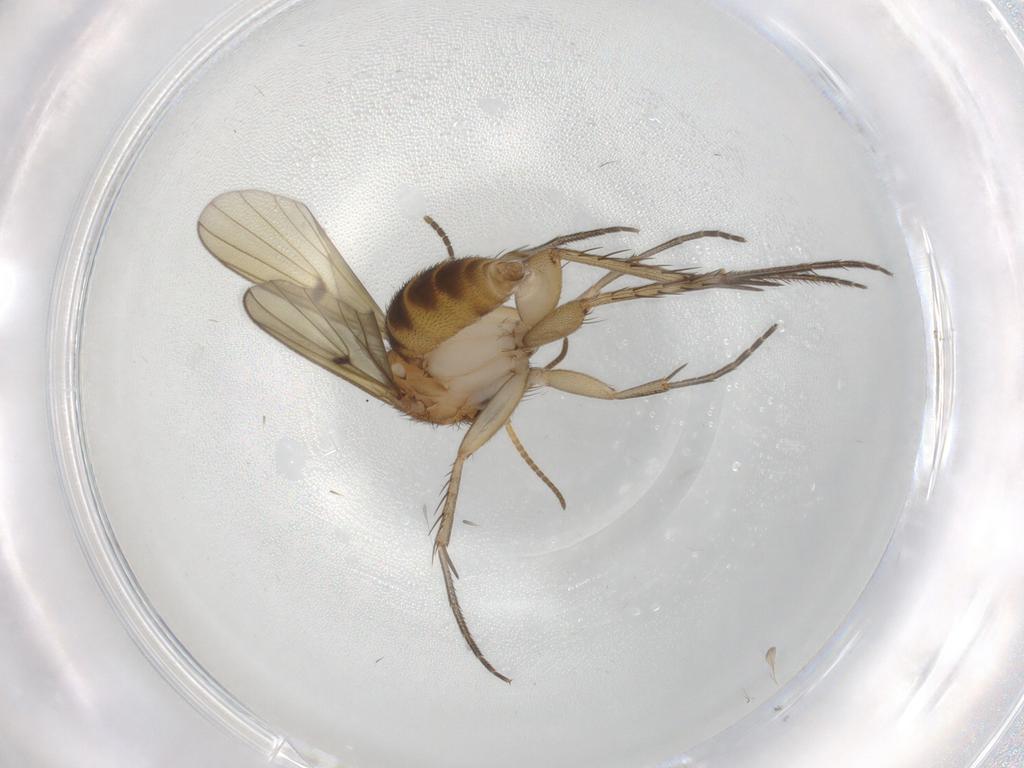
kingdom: Animalia
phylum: Arthropoda
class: Insecta
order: Diptera
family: Mycetophilidae
